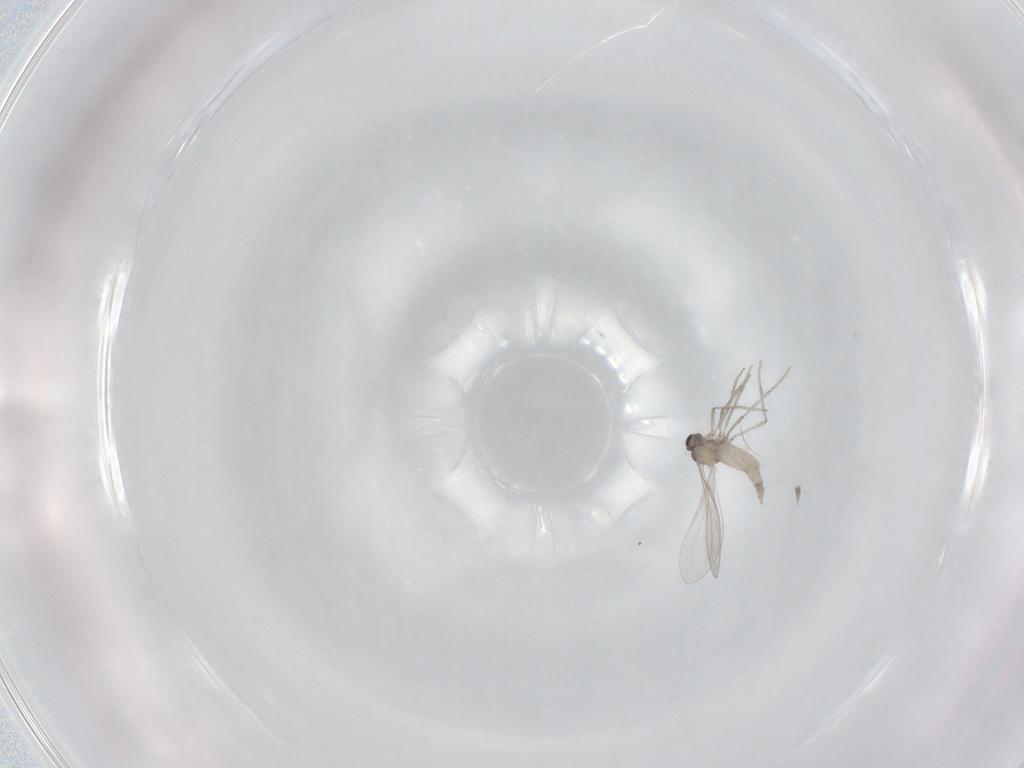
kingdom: Animalia
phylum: Arthropoda
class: Insecta
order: Diptera
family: Cecidomyiidae
